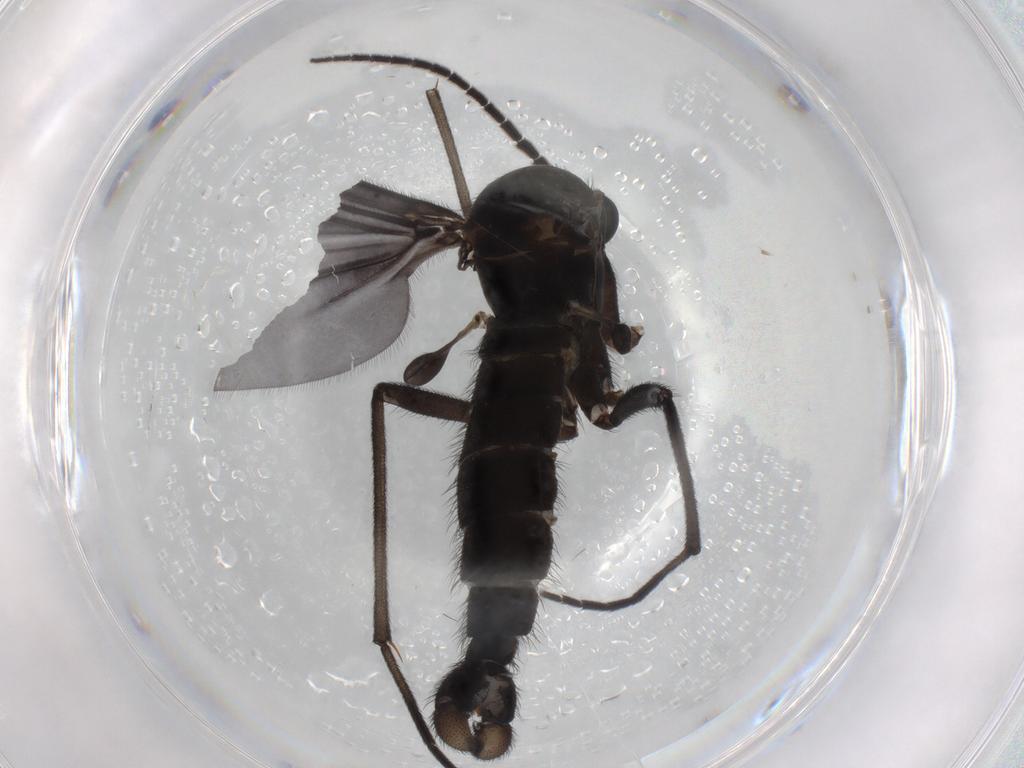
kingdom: Animalia
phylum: Arthropoda
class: Insecta
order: Diptera
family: Sciaridae
